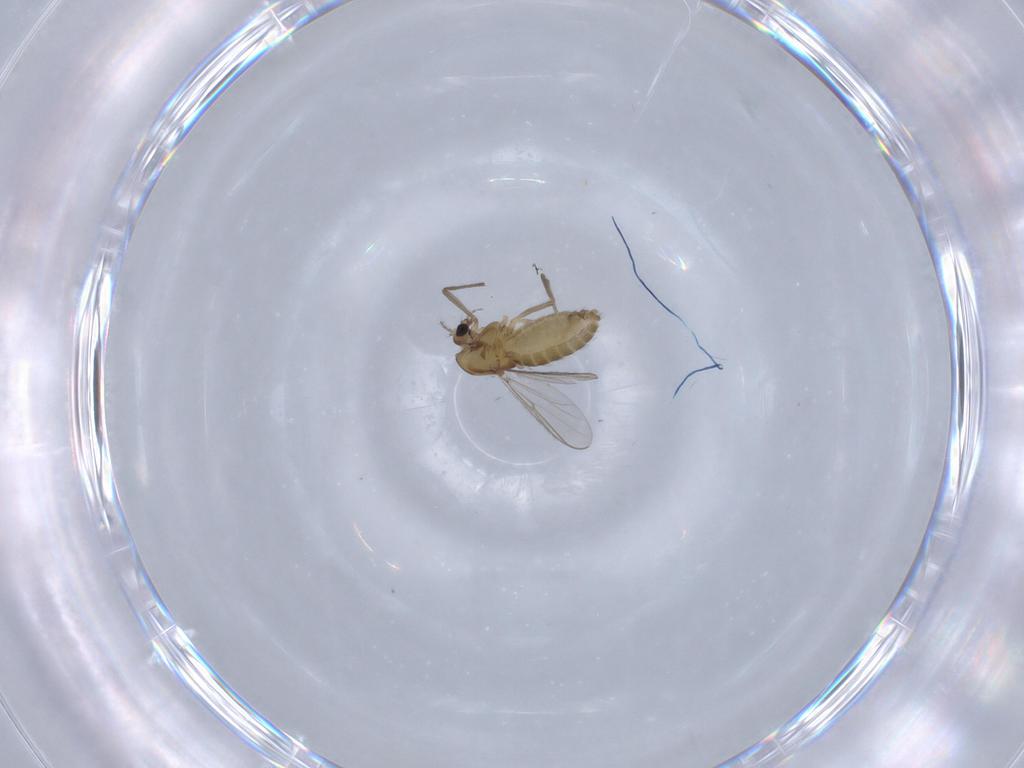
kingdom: Animalia
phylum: Arthropoda
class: Insecta
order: Diptera
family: Chironomidae
